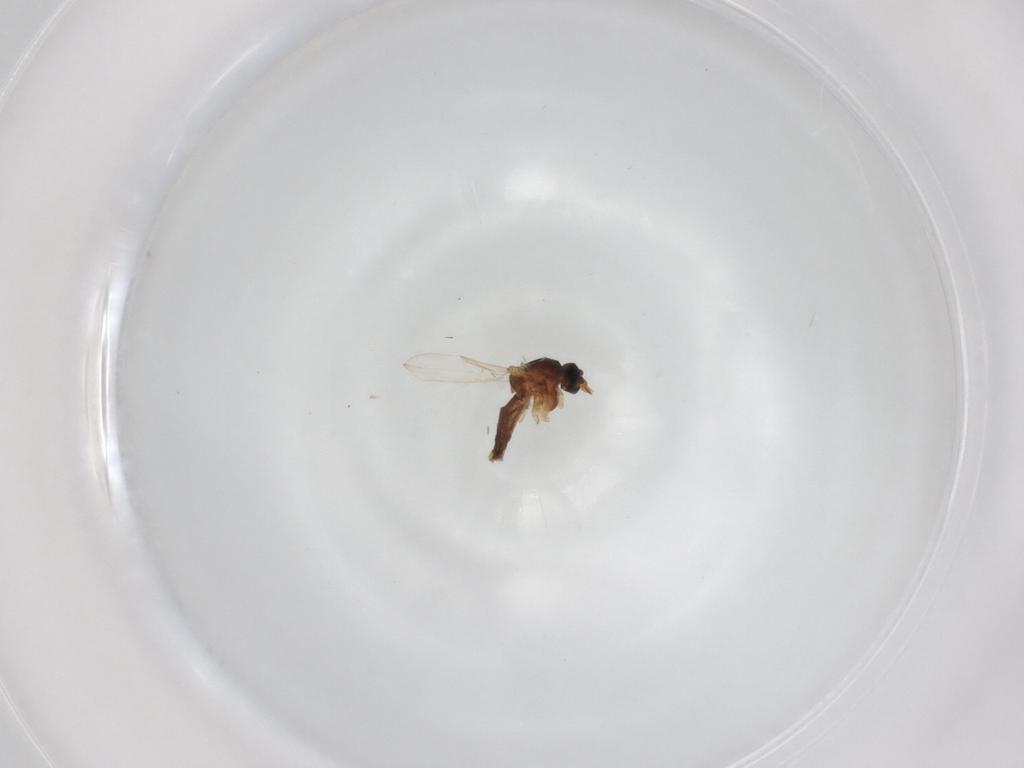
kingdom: Animalia
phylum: Arthropoda
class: Insecta
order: Diptera
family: Ceratopogonidae
